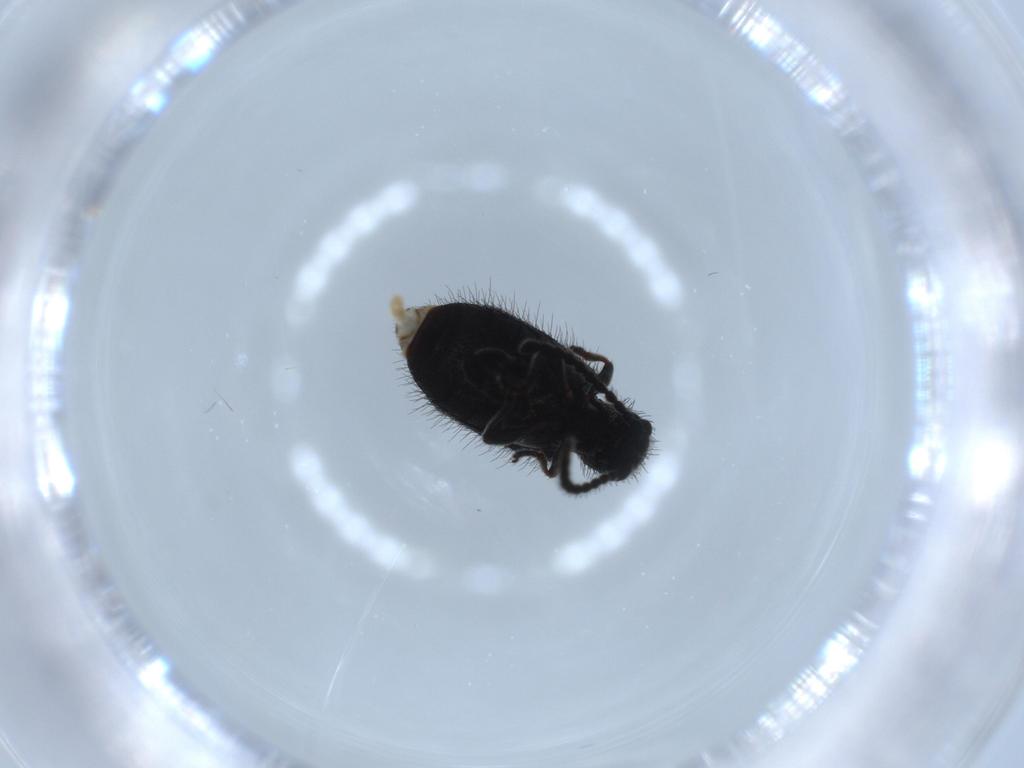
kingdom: Animalia
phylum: Arthropoda
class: Insecta
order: Coleoptera
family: Ptinidae
